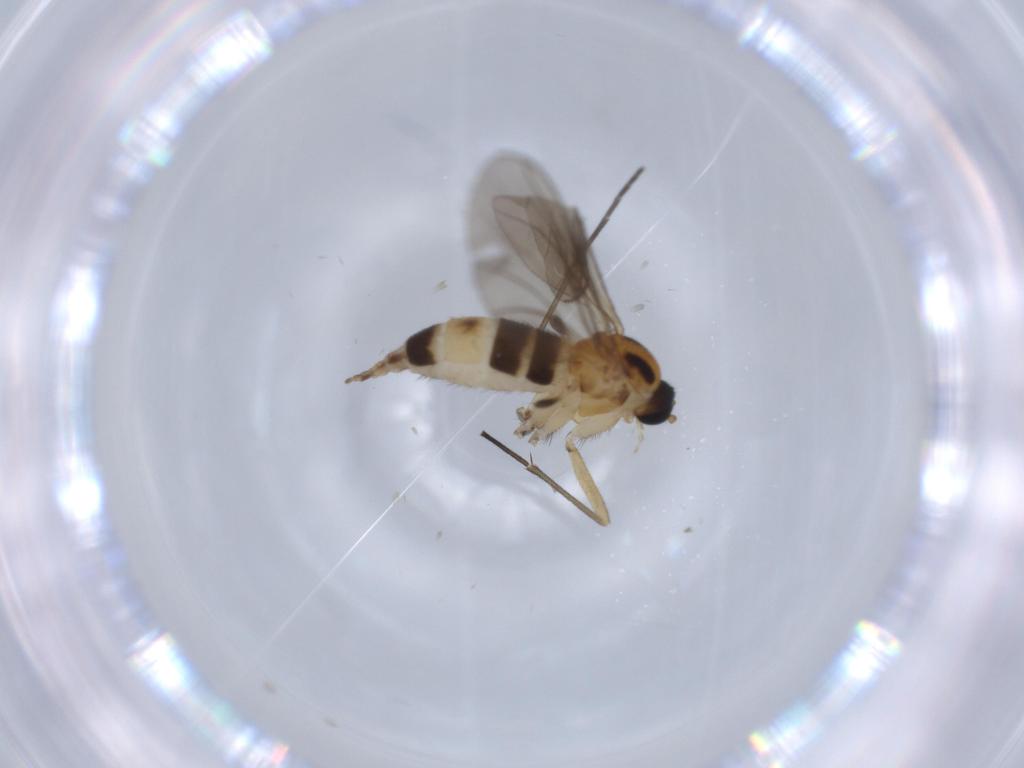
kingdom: Animalia
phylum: Arthropoda
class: Insecta
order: Diptera
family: Sciaridae
